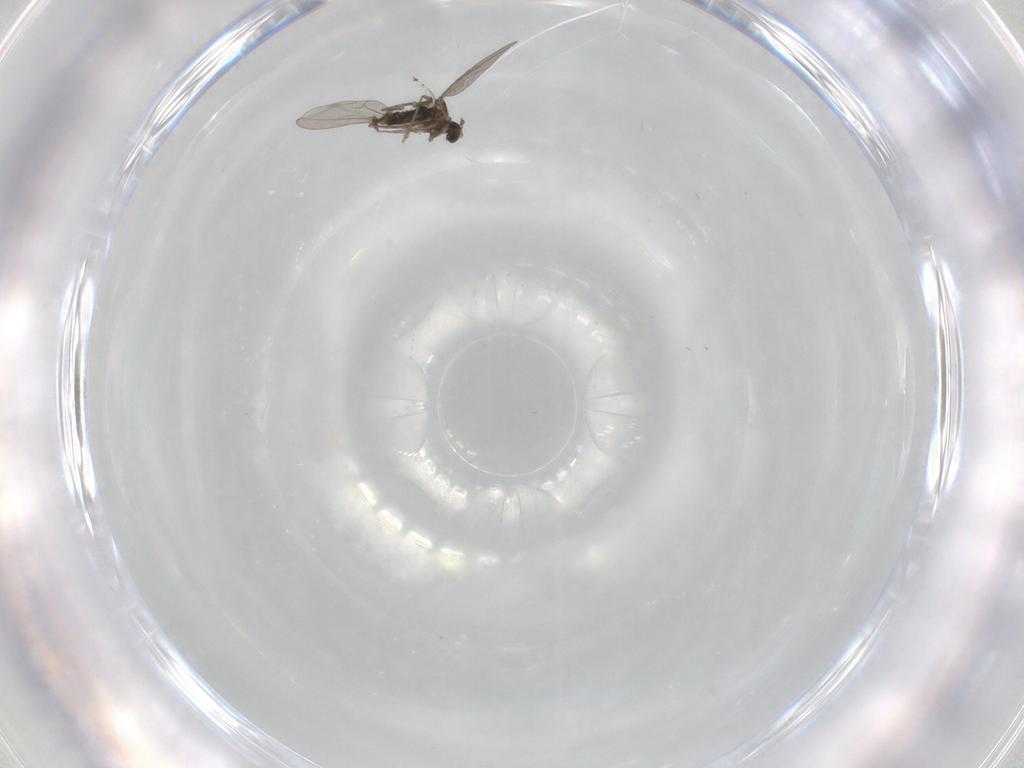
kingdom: Animalia
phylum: Arthropoda
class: Insecta
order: Diptera
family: Cecidomyiidae
